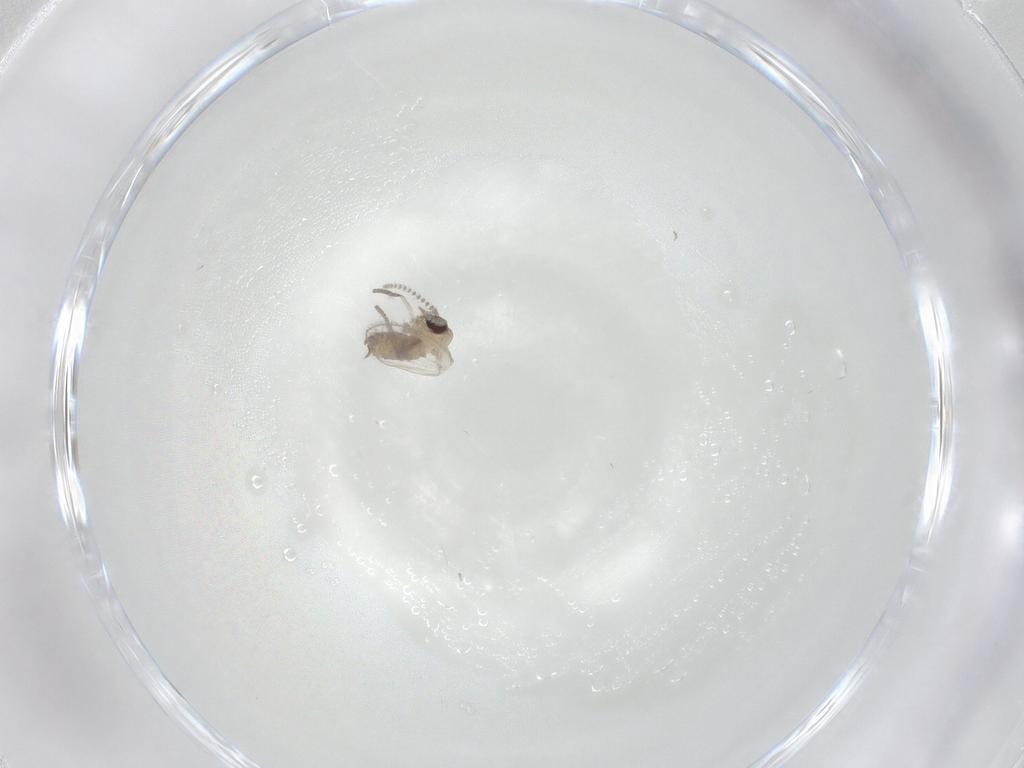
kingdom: Animalia
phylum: Arthropoda
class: Insecta
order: Diptera
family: Psychodidae
